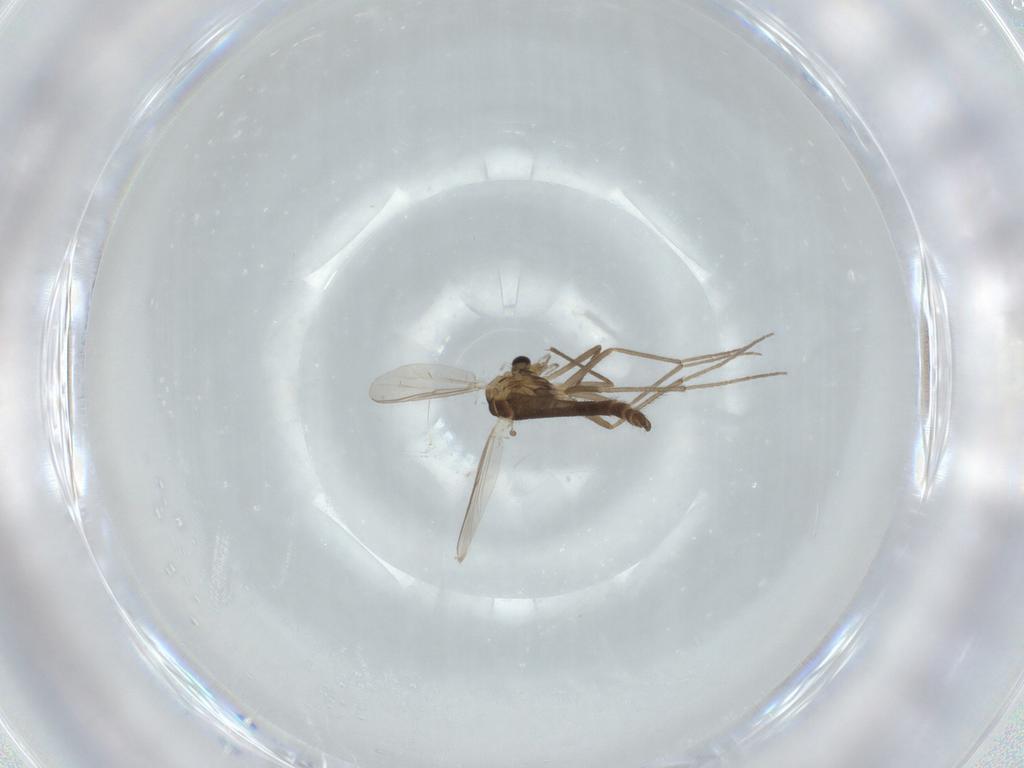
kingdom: Animalia
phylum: Arthropoda
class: Insecta
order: Diptera
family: Chironomidae
